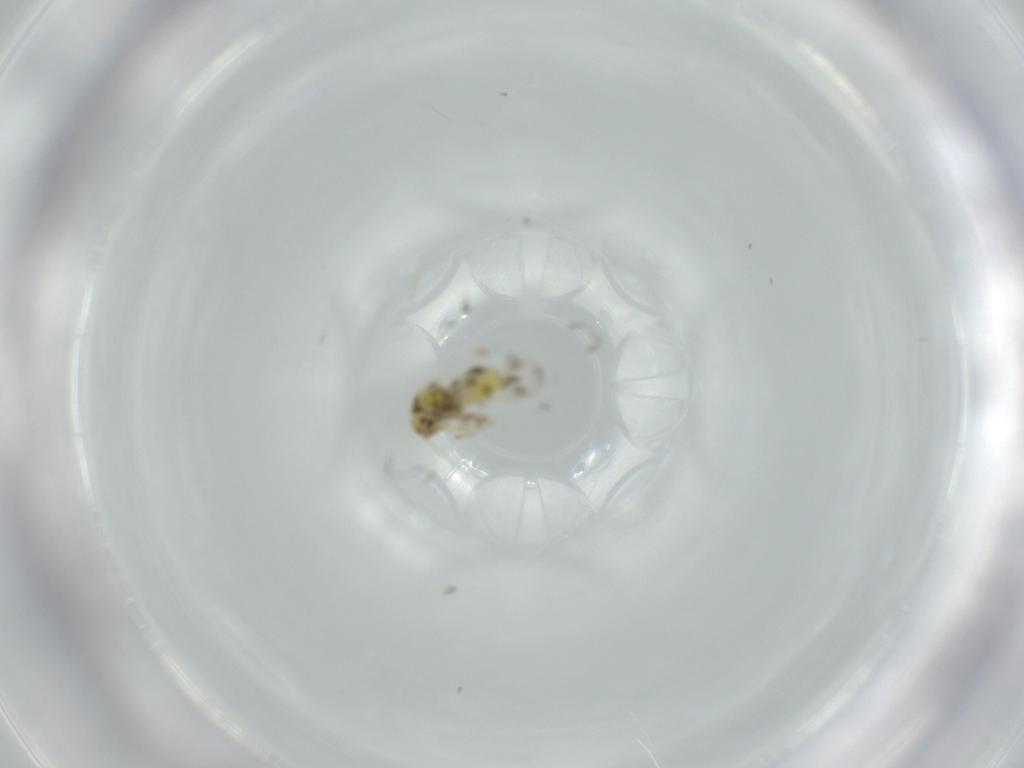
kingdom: Animalia
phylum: Arthropoda
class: Insecta
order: Hemiptera
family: Aleyrodidae
